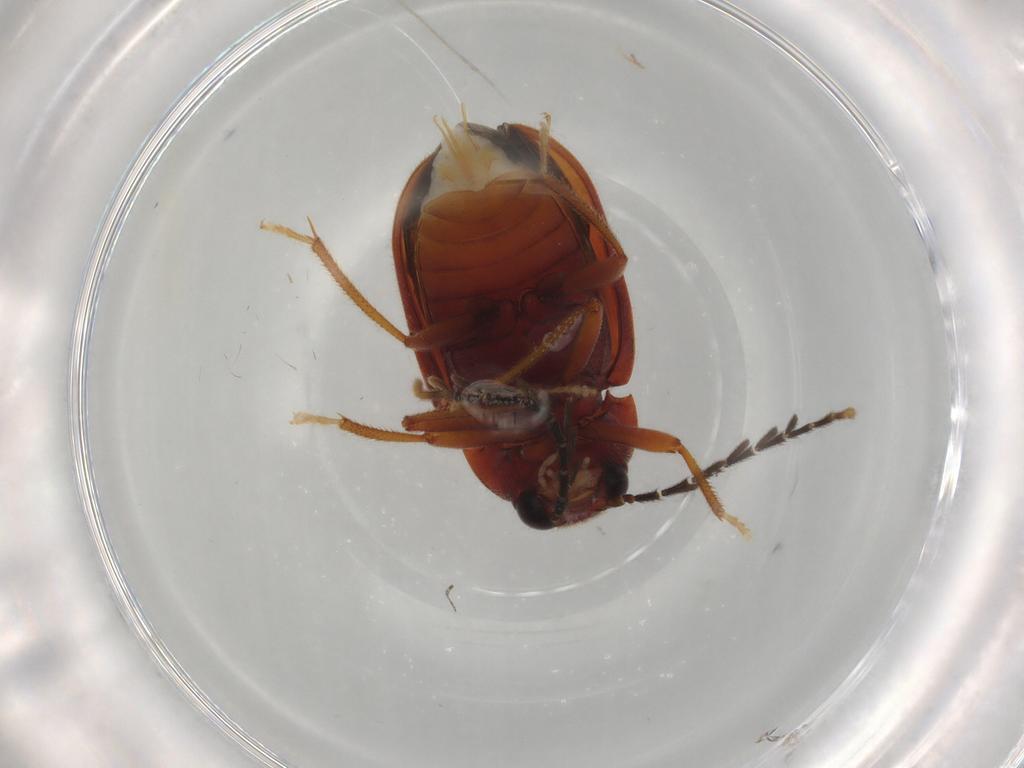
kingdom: Animalia
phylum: Arthropoda
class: Insecta
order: Coleoptera
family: Ptilodactylidae
